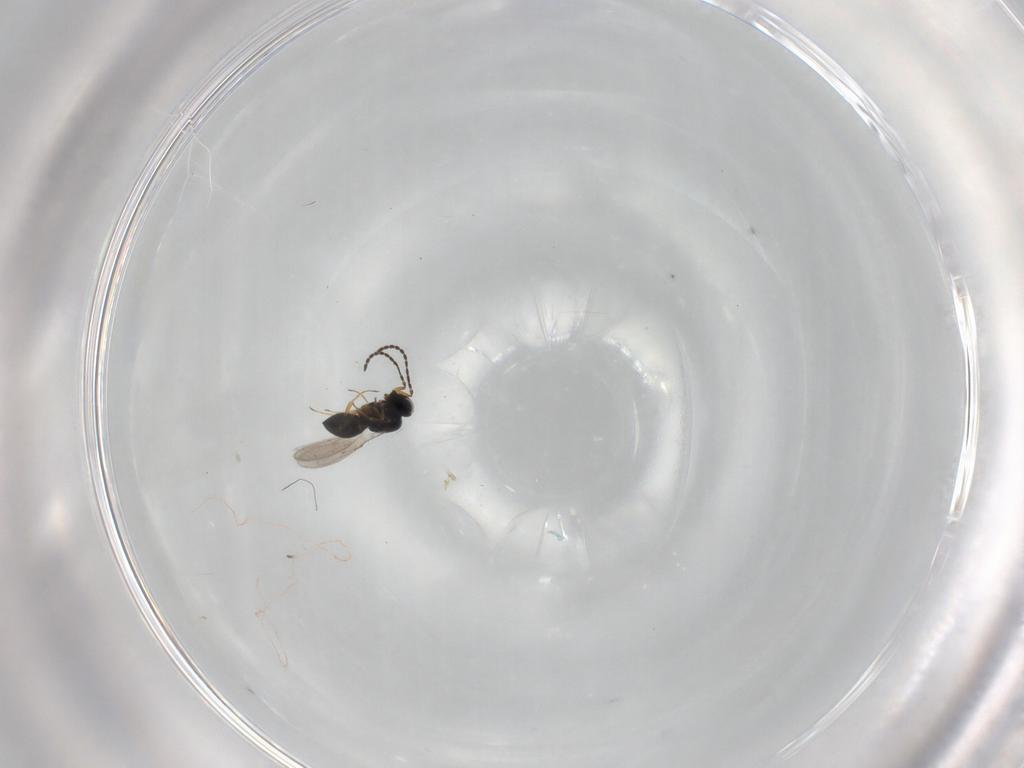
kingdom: Animalia
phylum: Arthropoda
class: Insecta
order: Hymenoptera
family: Scelionidae
